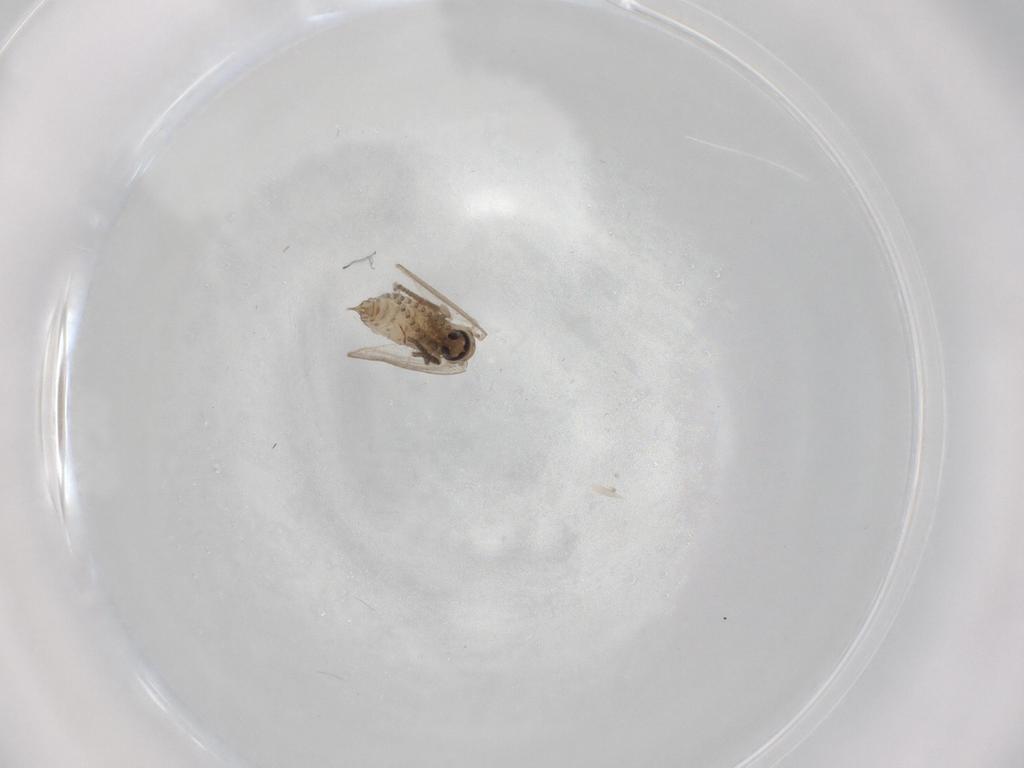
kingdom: Animalia
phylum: Arthropoda
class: Insecta
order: Diptera
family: Psychodidae
